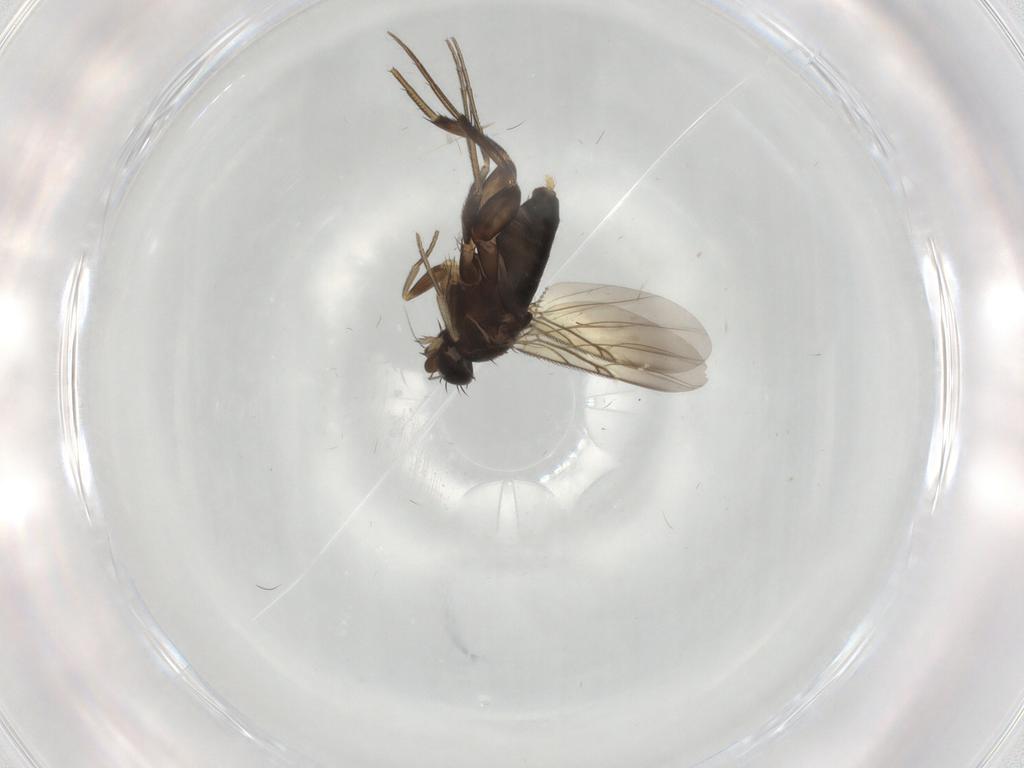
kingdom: Animalia
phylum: Arthropoda
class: Insecta
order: Diptera
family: Phoridae
